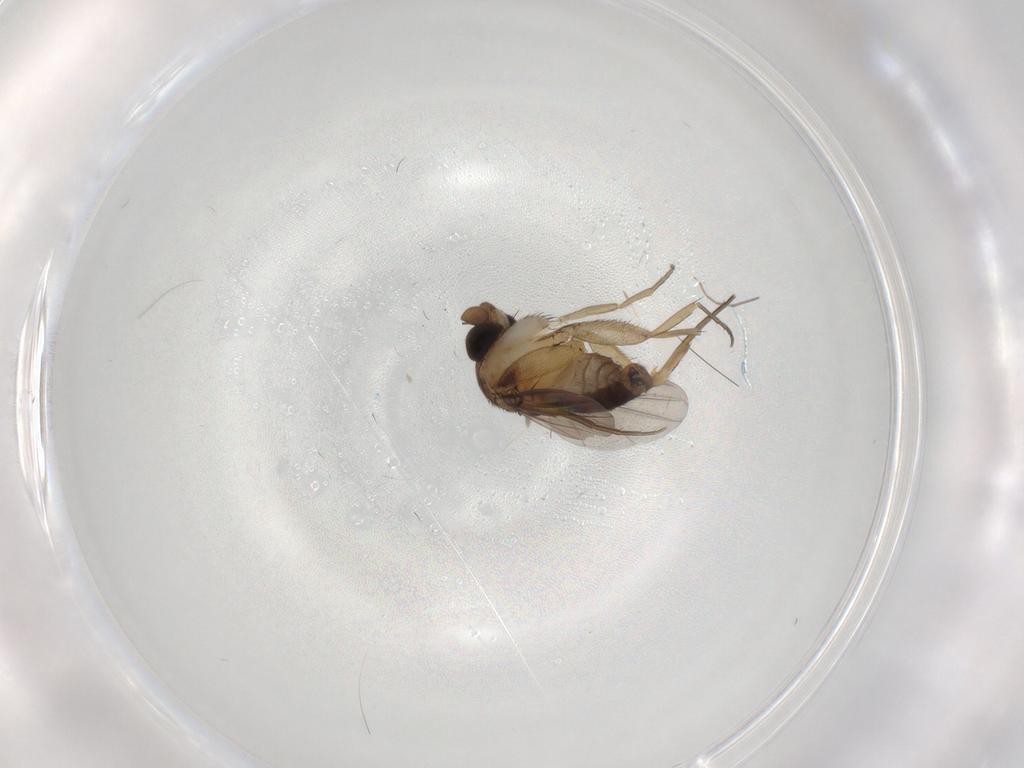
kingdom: Animalia
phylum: Arthropoda
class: Insecta
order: Diptera
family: Phoridae
